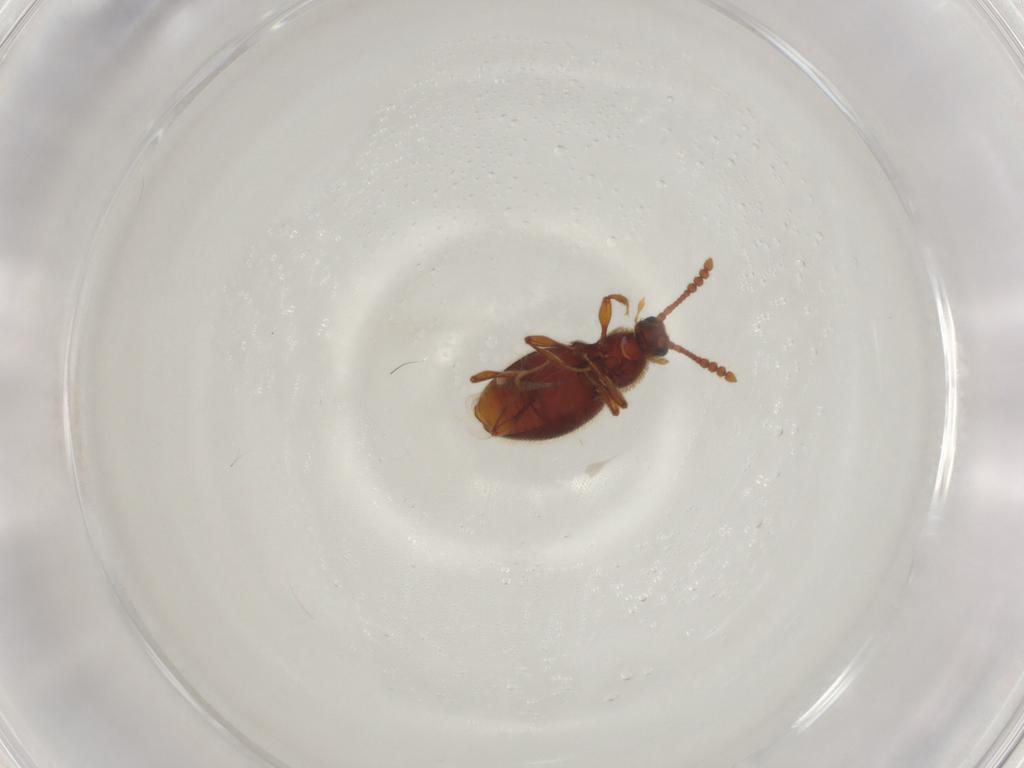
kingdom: Animalia
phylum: Arthropoda
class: Insecta
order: Coleoptera
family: Staphylinidae
